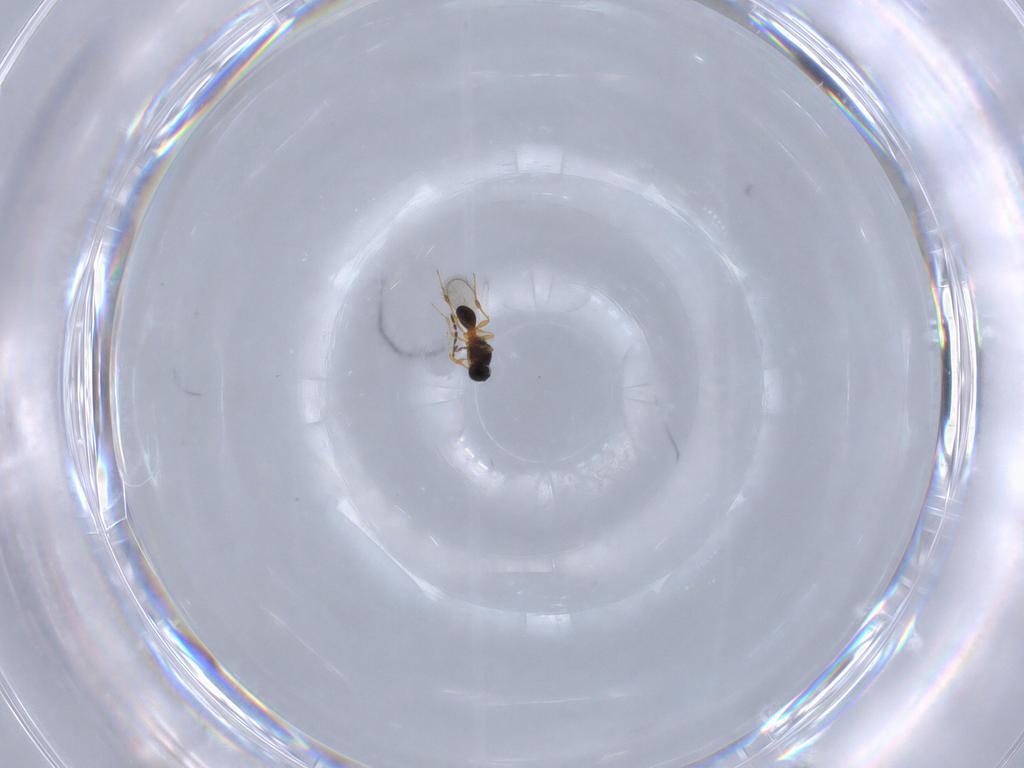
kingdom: Animalia
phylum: Arthropoda
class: Insecta
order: Hymenoptera
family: Platygastridae
